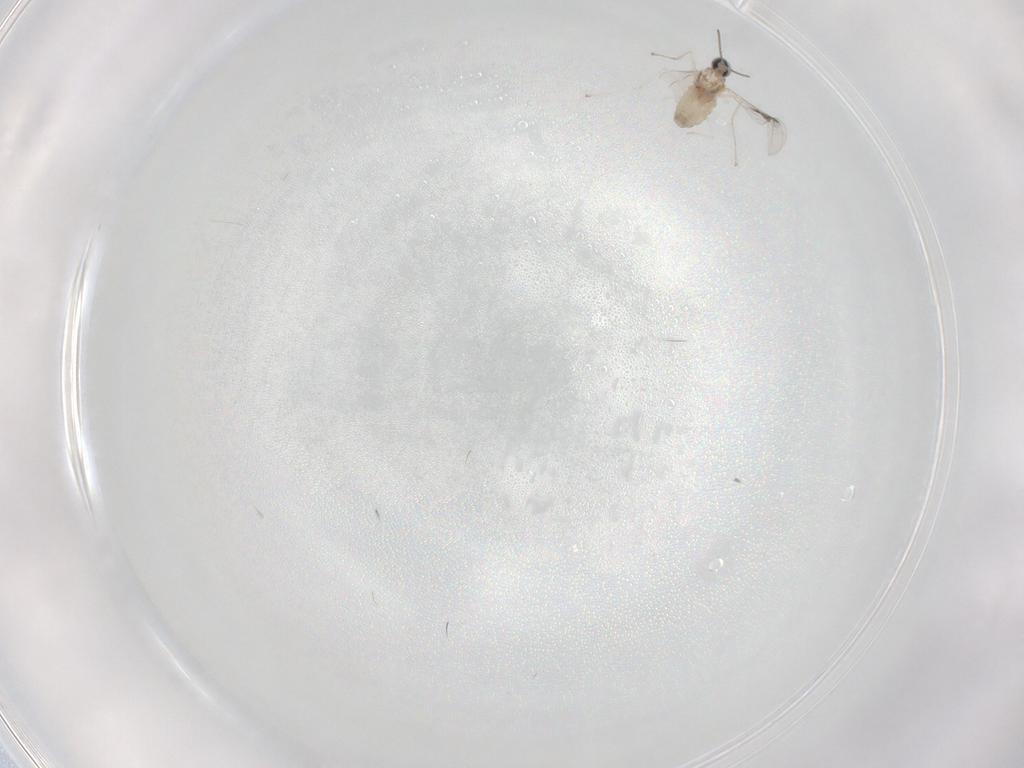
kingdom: Animalia
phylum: Arthropoda
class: Insecta
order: Diptera
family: Cecidomyiidae
